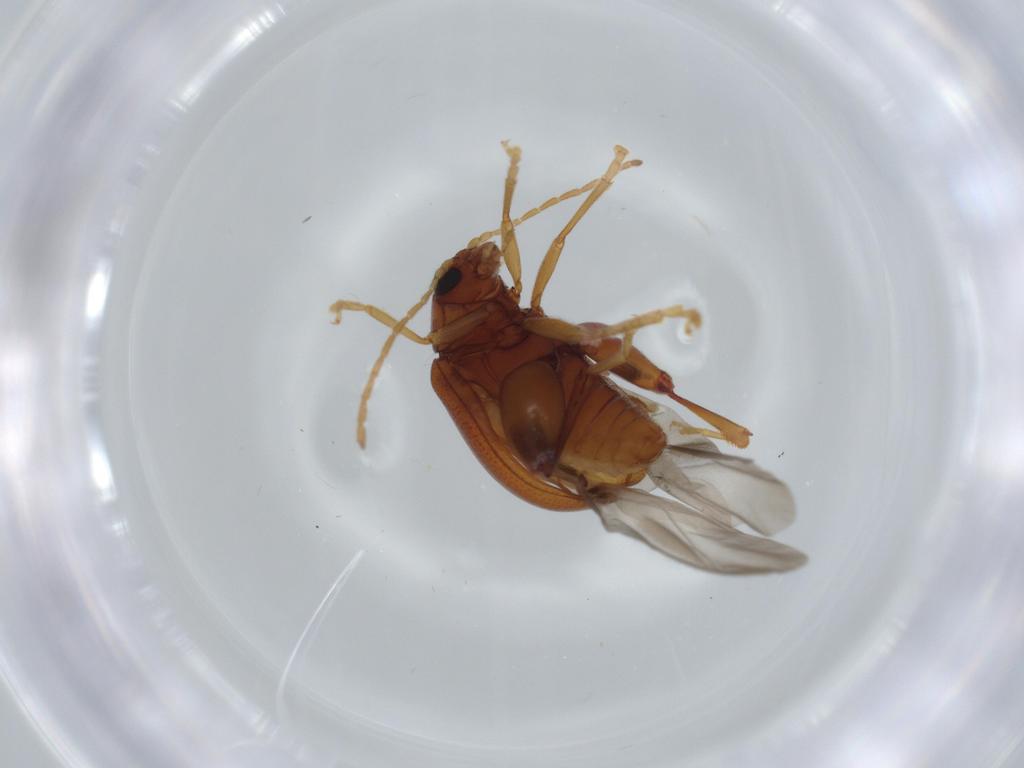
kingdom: Animalia
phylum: Arthropoda
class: Insecta
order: Coleoptera
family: Chrysomelidae
